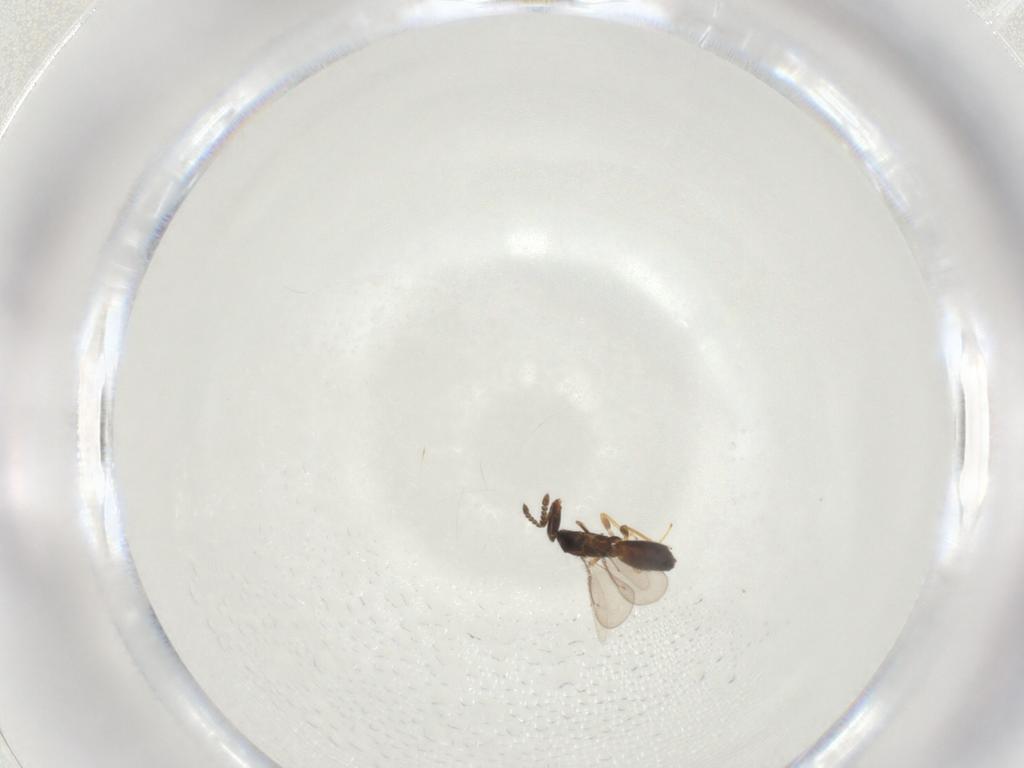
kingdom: Animalia
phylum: Arthropoda
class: Insecta
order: Hymenoptera
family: Eulophidae
